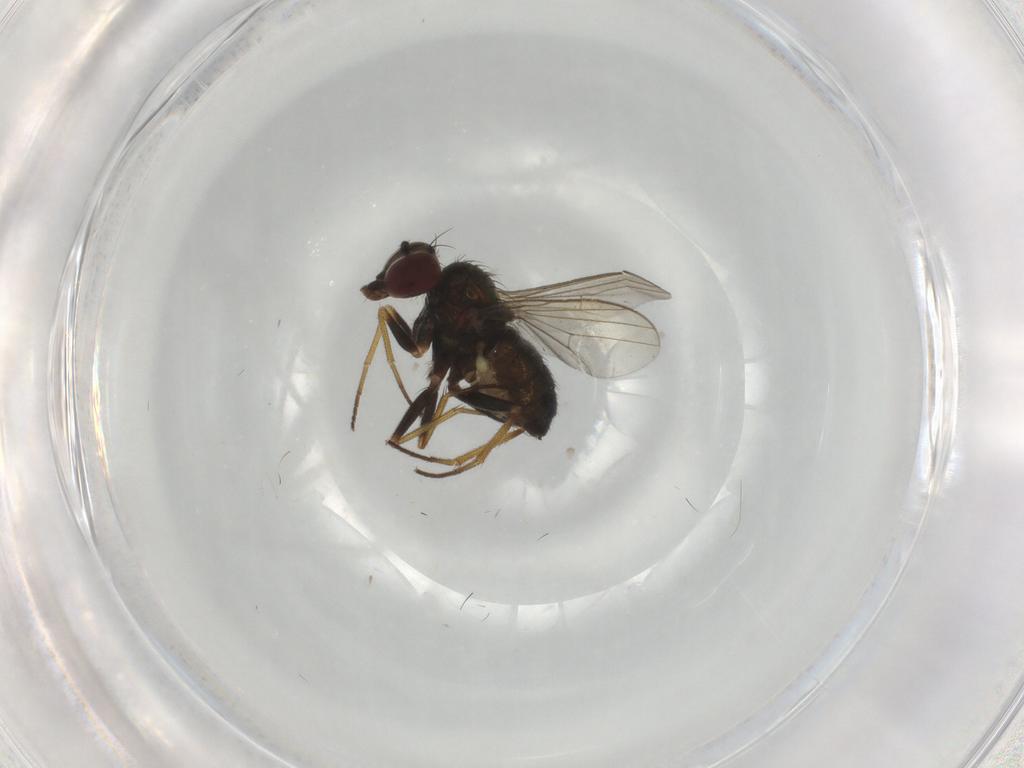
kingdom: Animalia
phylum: Arthropoda
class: Insecta
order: Diptera
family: Dolichopodidae
